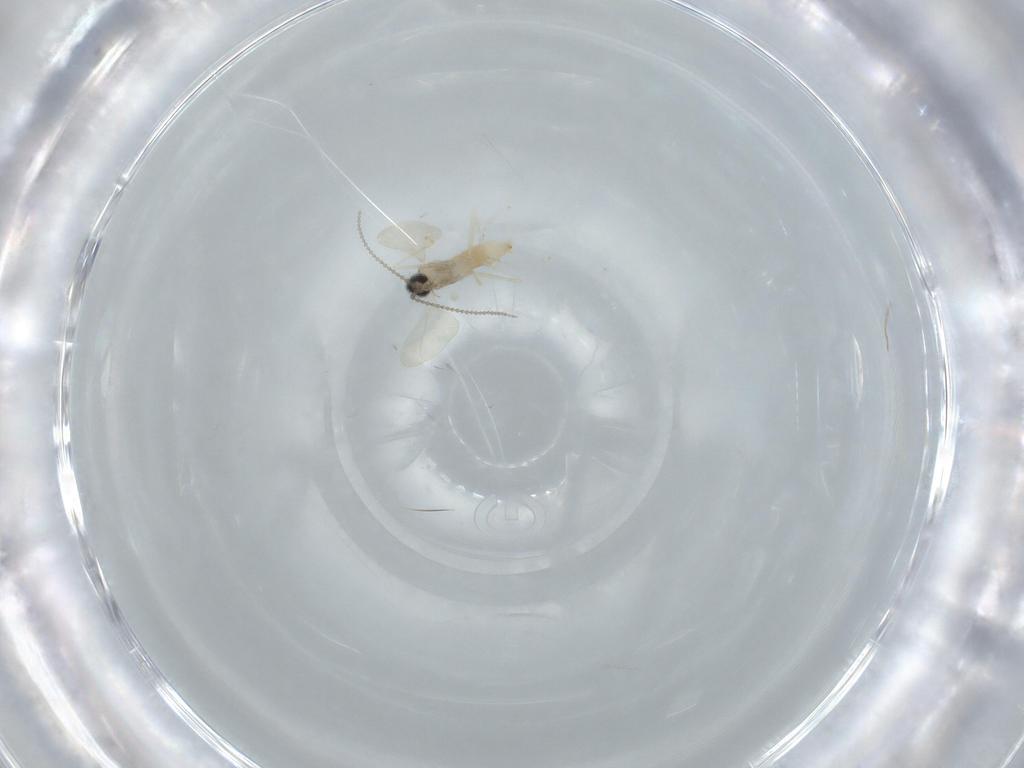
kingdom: Animalia
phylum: Arthropoda
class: Insecta
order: Diptera
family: Cecidomyiidae
